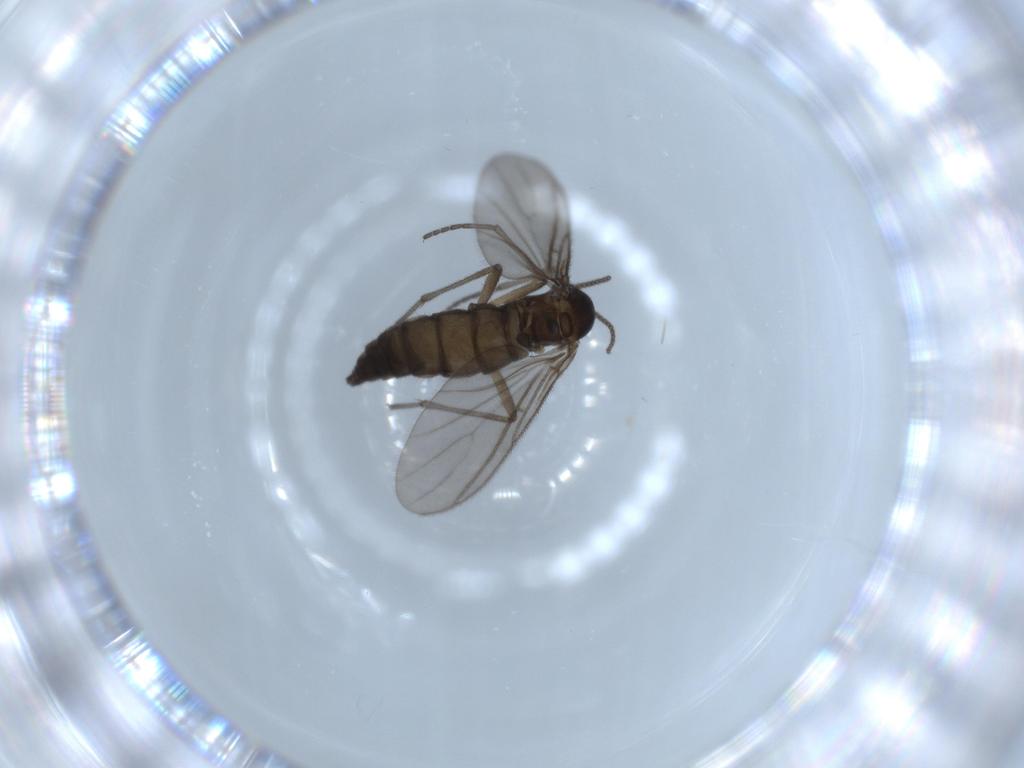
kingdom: Animalia
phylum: Arthropoda
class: Insecta
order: Diptera
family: Sciaridae
